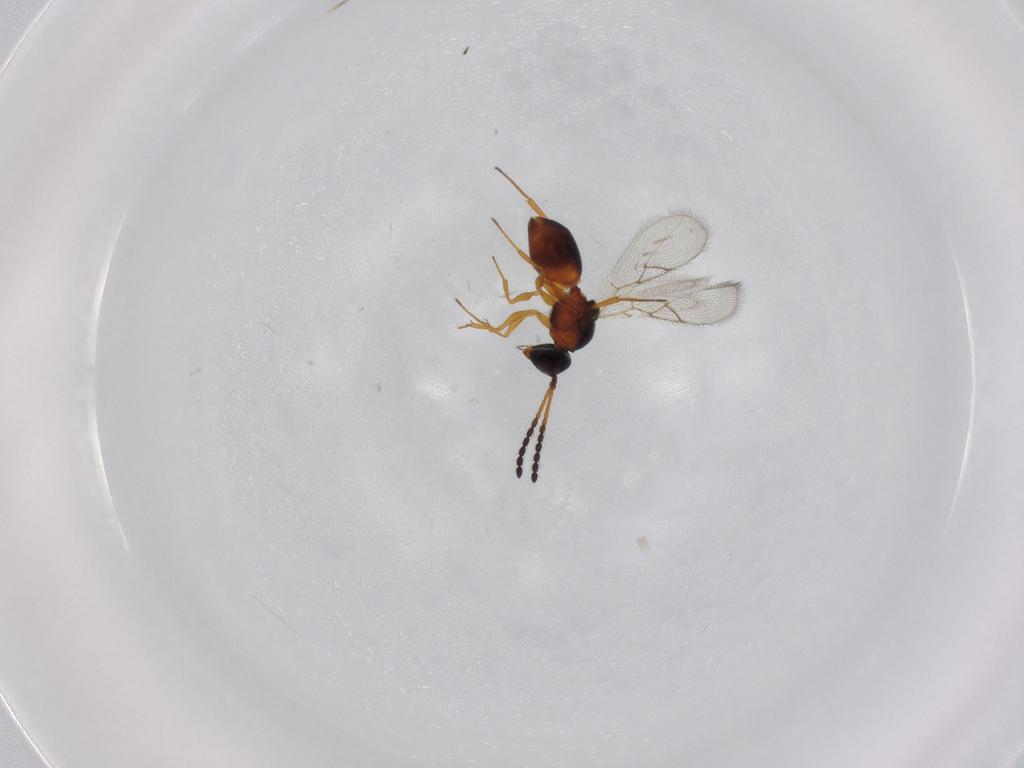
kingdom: Animalia
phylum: Arthropoda
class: Insecta
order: Hymenoptera
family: Figitidae
